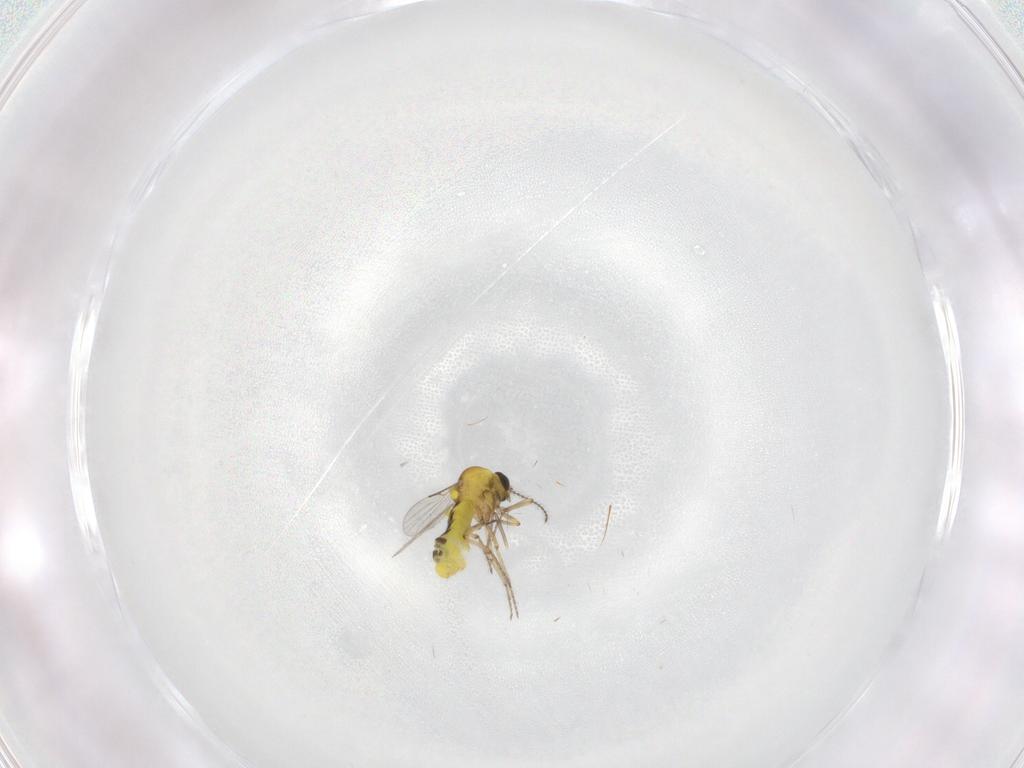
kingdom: Animalia
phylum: Arthropoda
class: Insecta
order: Diptera
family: Ceratopogonidae
